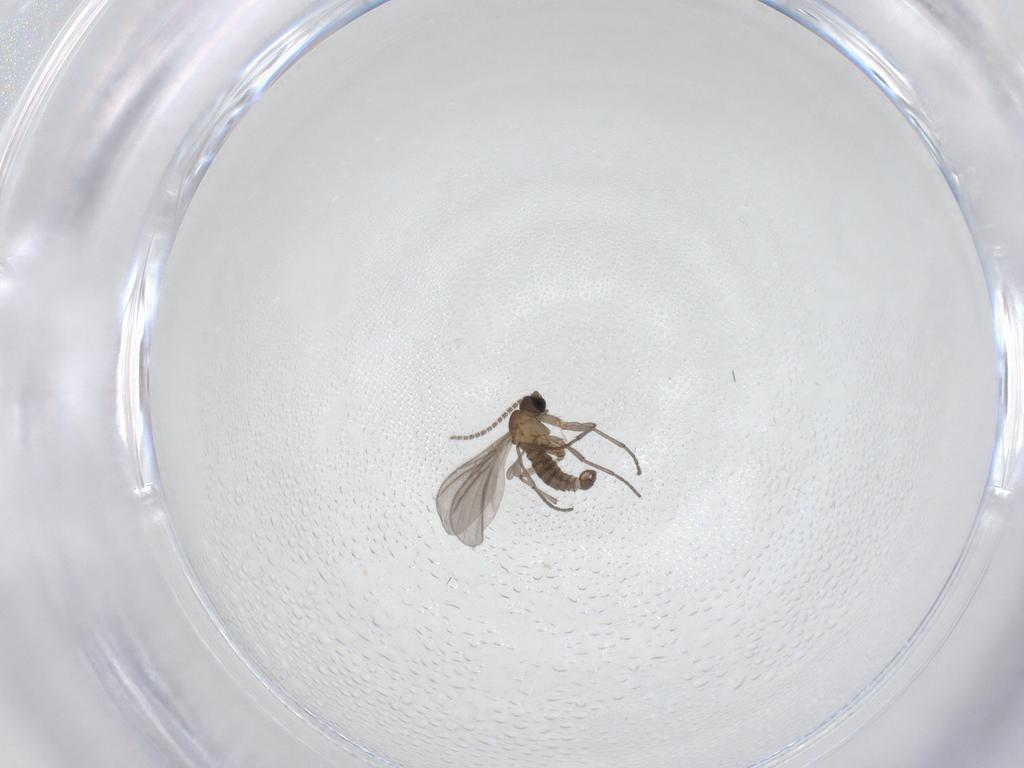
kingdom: Animalia
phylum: Arthropoda
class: Insecta
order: Diptera
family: Sciaridae
